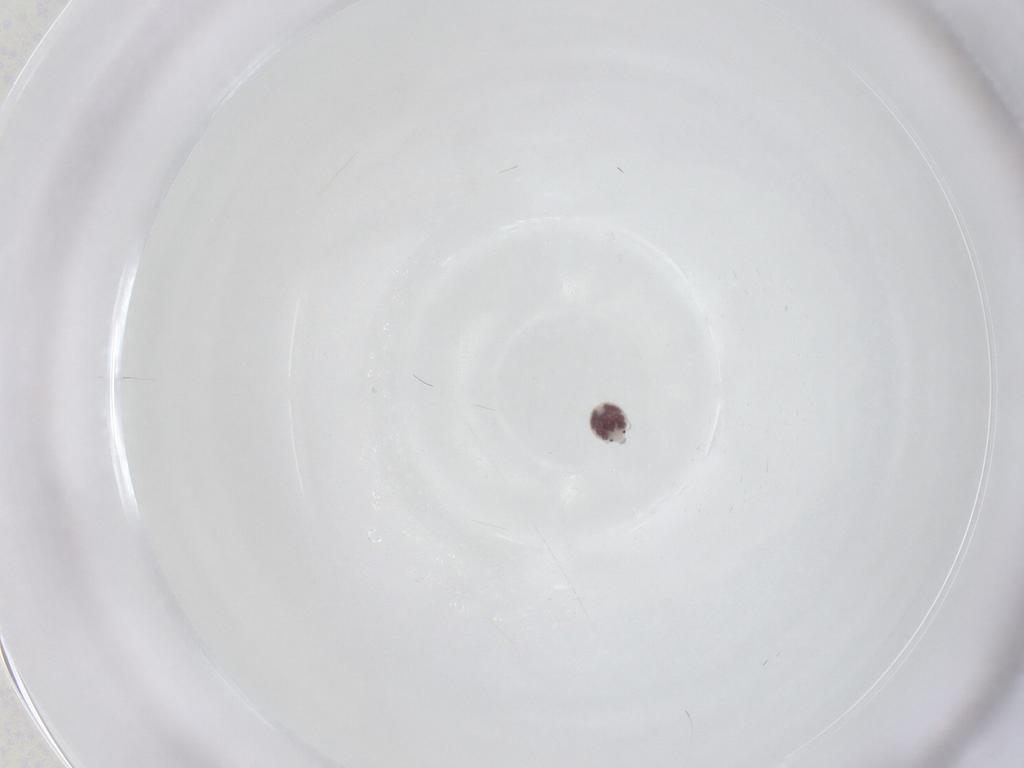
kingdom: Animalia
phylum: Arthropoda
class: Arachnida
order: Trombidiformes
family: Pionidae
